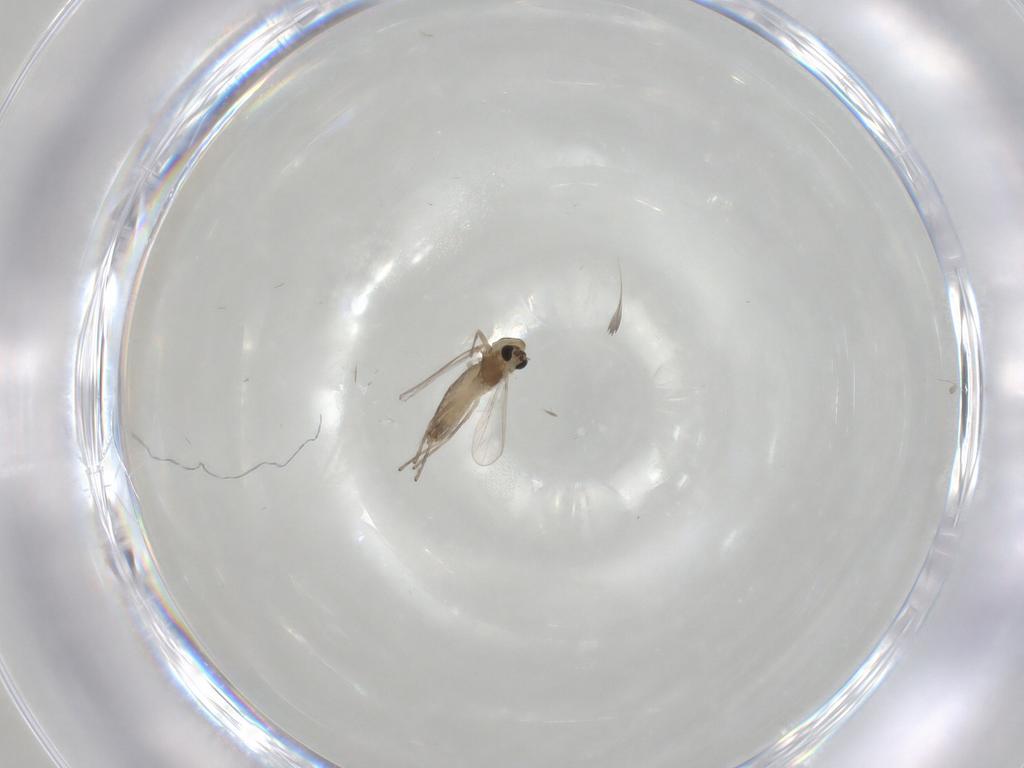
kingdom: Animalia
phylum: Arthropoda
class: Insecta
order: Diptera
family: Chironomidae
